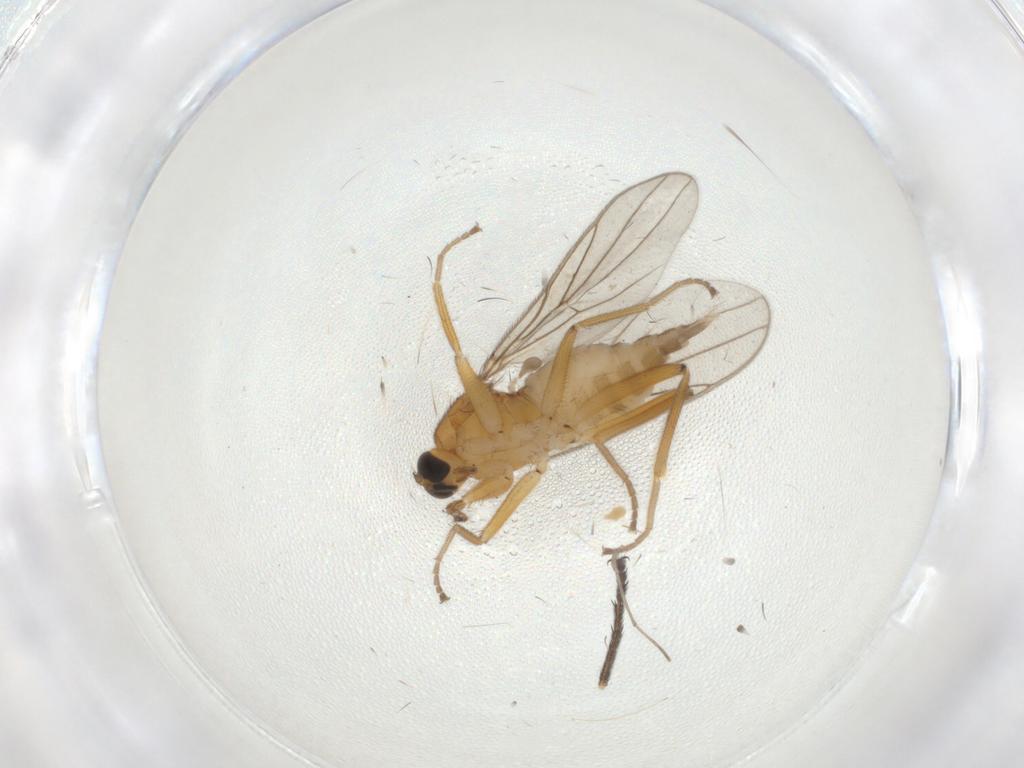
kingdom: Animalia
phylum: Arthropoda
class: Insecta
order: Diptera
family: Hybotidae
